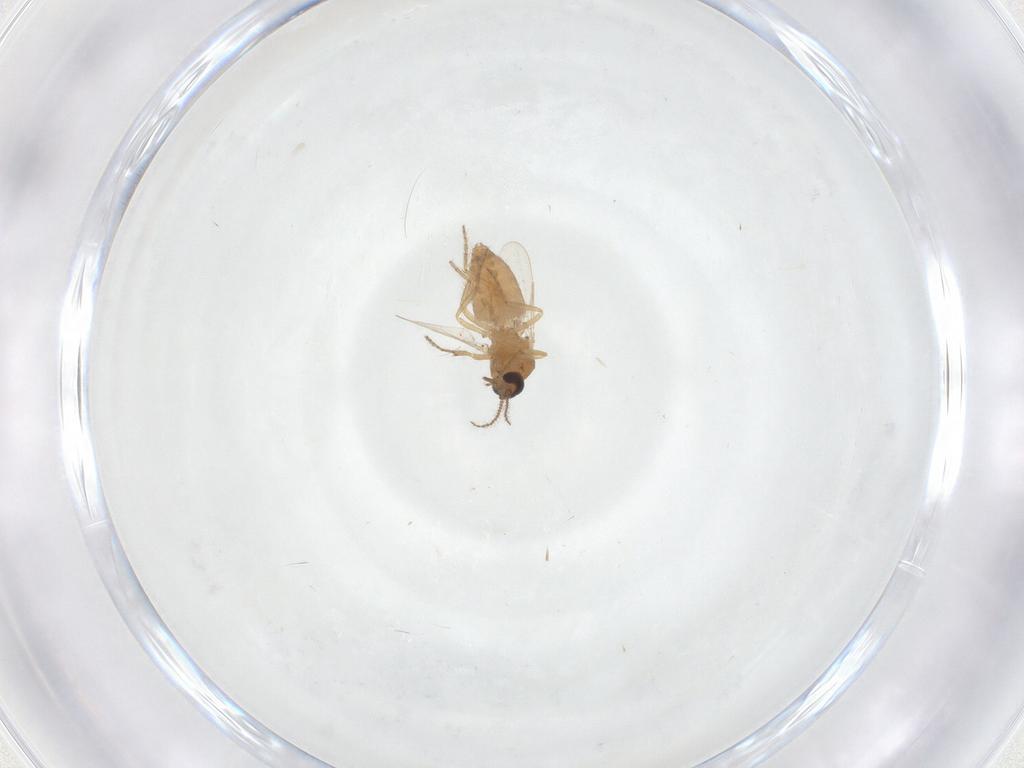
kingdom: Animalia
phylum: Arthropoda
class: Insecta
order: Diptera
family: Ceratopogonidae
